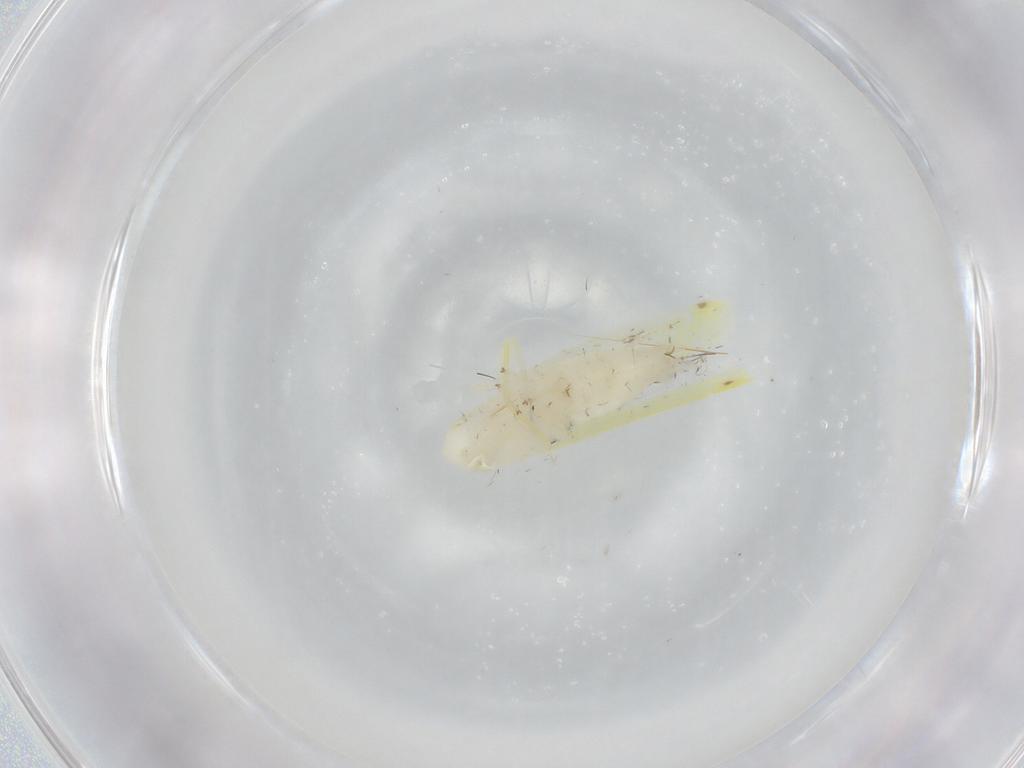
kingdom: Animalia
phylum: Arthropoda
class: Insecta
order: Hemiptera
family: Cicadellidae
